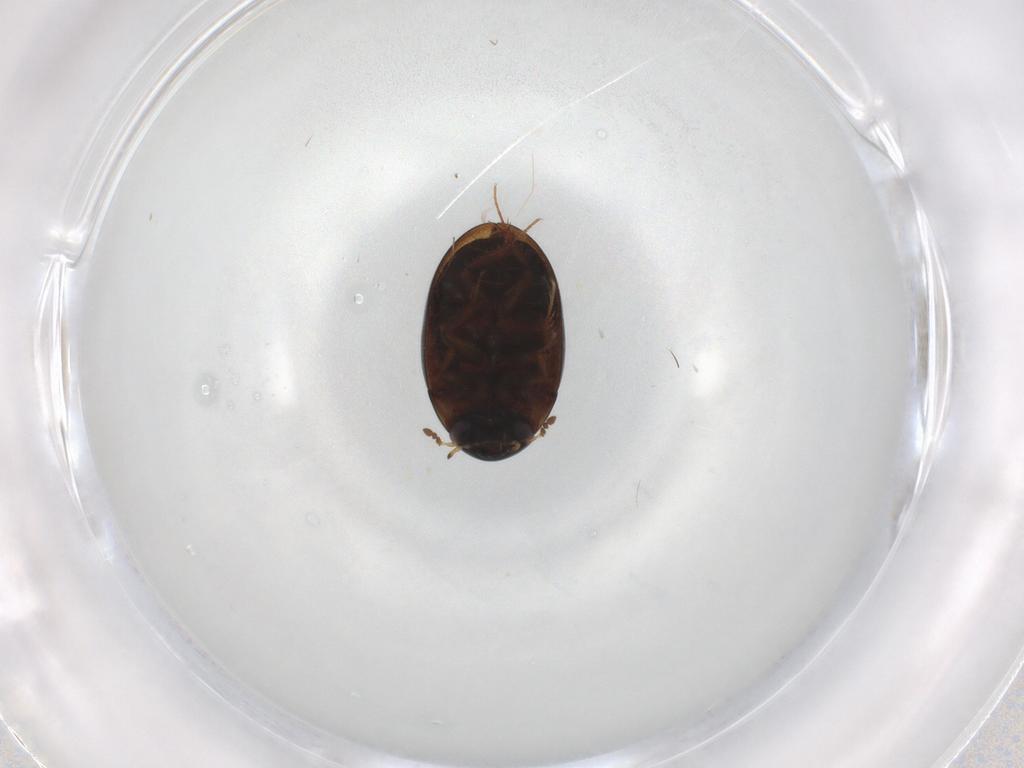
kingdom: Animalia
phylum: Arthropoda
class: Insecta
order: Coleoptera
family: Hydrophilidae
